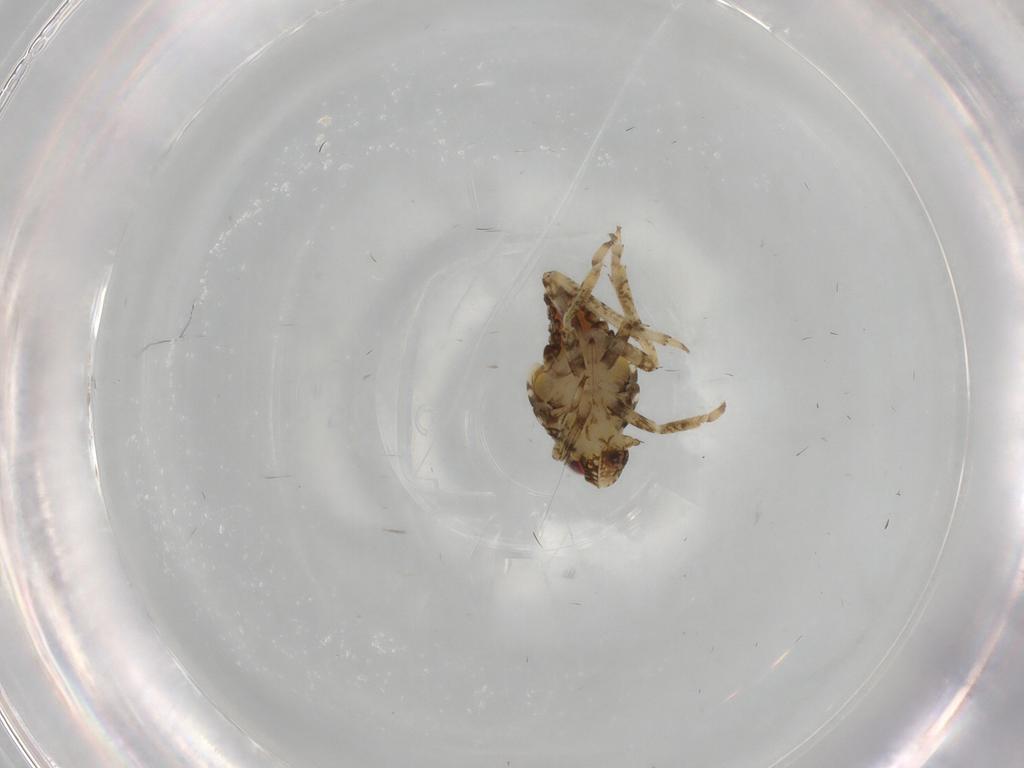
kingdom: Animalia
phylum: Arthropoda
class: Insecta
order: Hemiptera
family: Issidae
